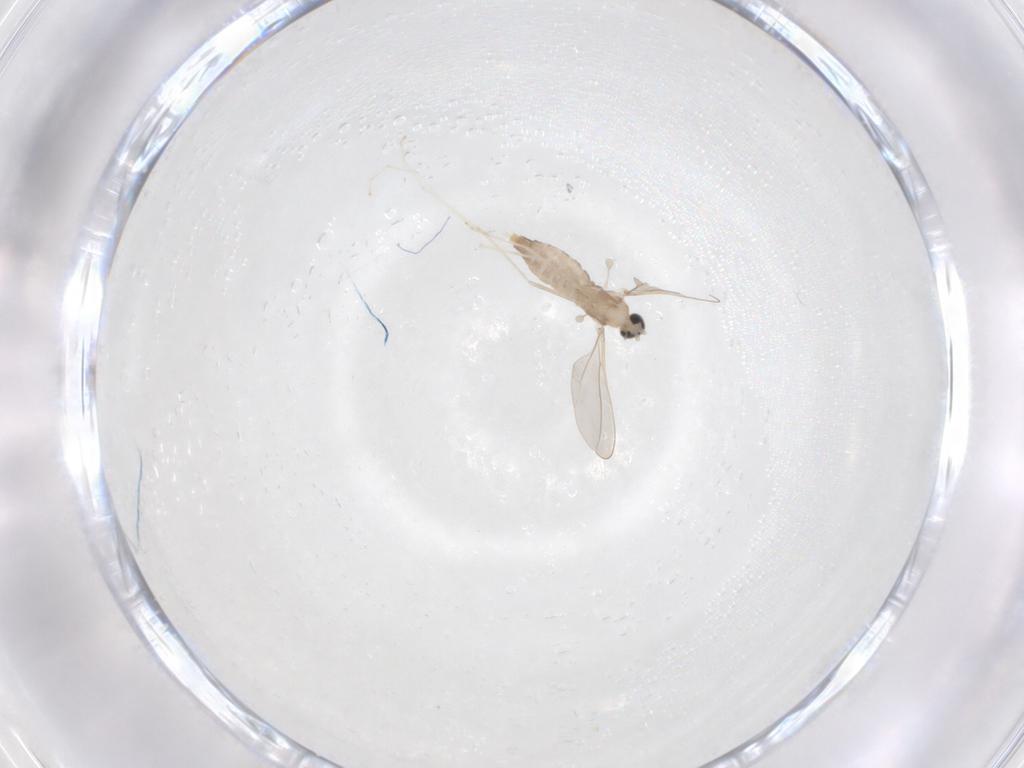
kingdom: Animalia
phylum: Arthropoda
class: Insecta
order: Diptera
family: Cecidomyiidae
